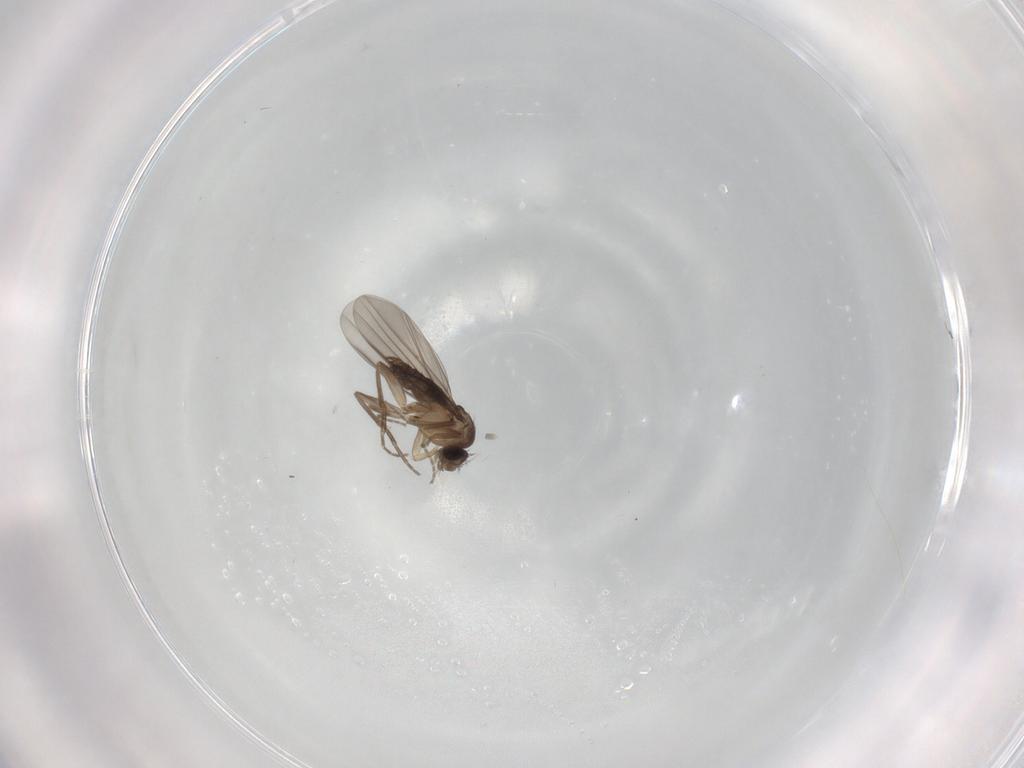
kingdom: Animalia
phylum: Arthropoda
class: Insecta
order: Diptera
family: Phoridae
